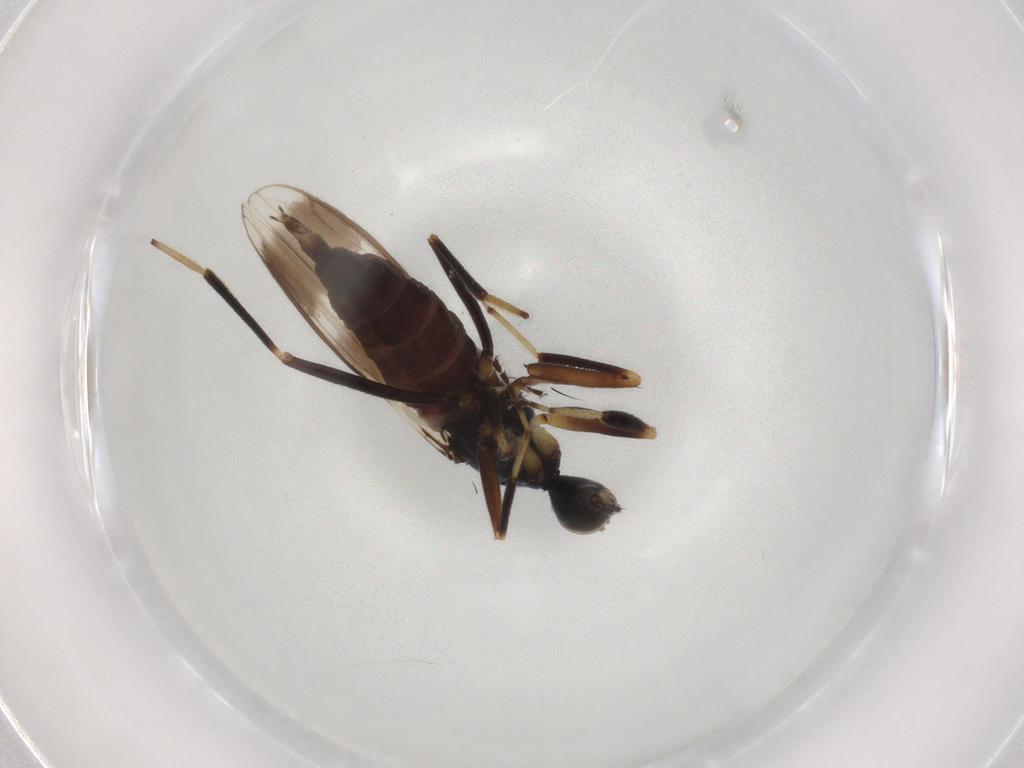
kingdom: Animalia
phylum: Arthropoda
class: Insecta
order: Diptera
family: Hybotidae
